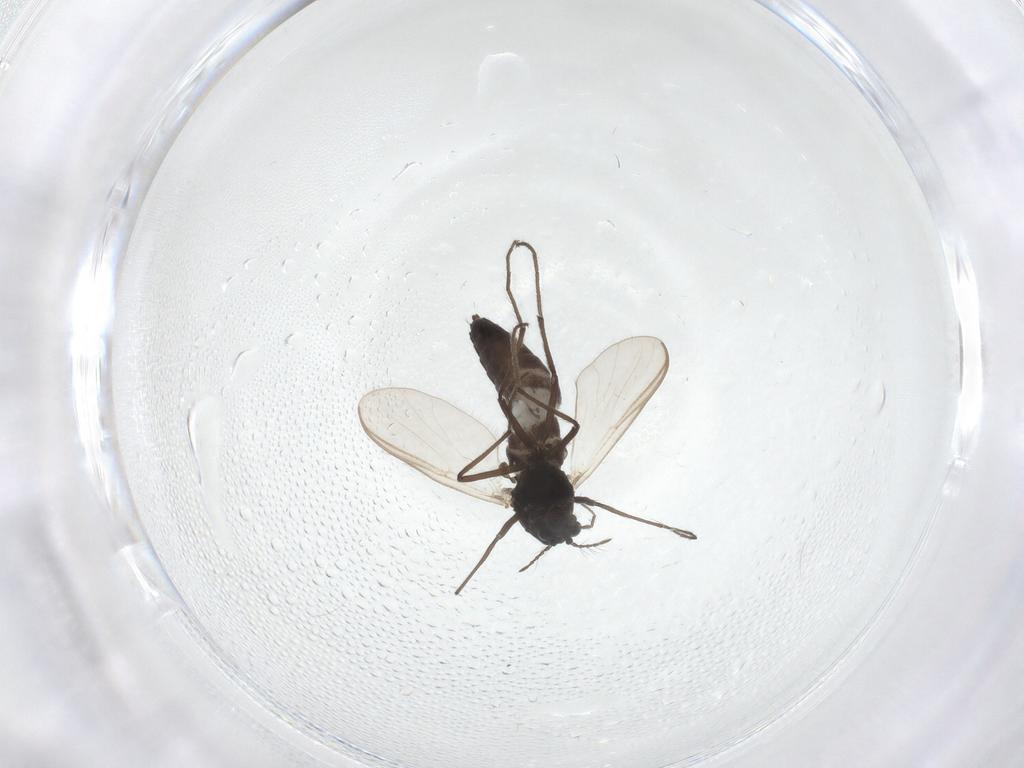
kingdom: Animalia
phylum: Arthropoda
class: Insecta
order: Diptera
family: Chironomidae
